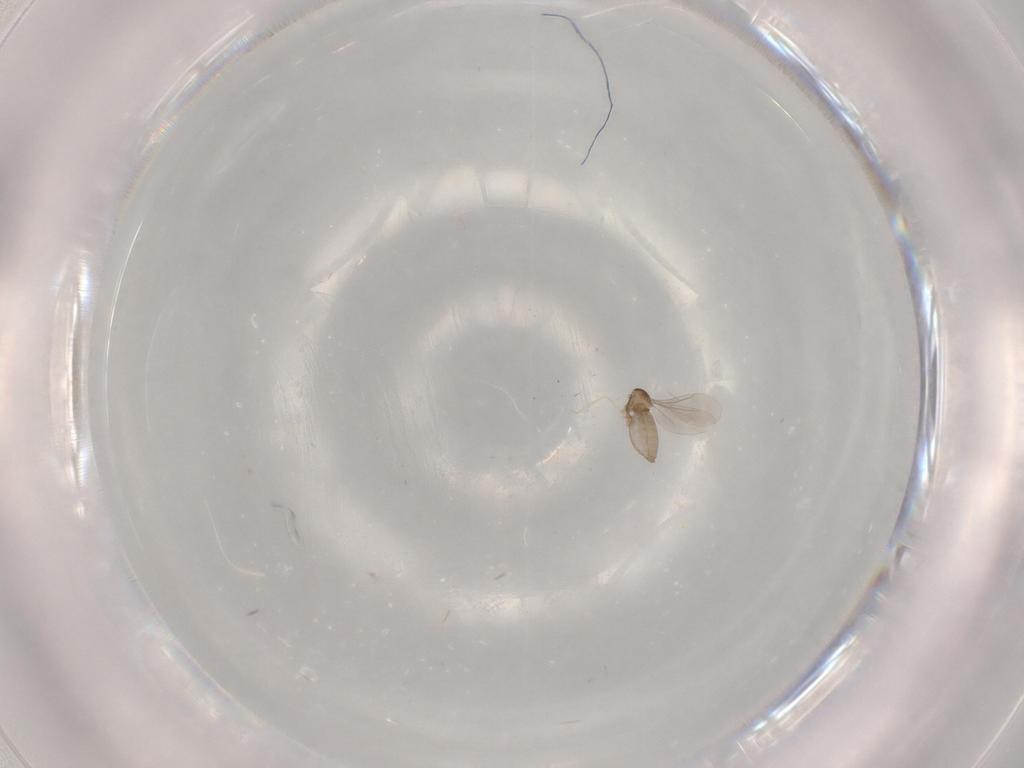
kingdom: Animalia
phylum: Arthropoda
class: Insecta
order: Diptera
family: Cecidomyiidae
